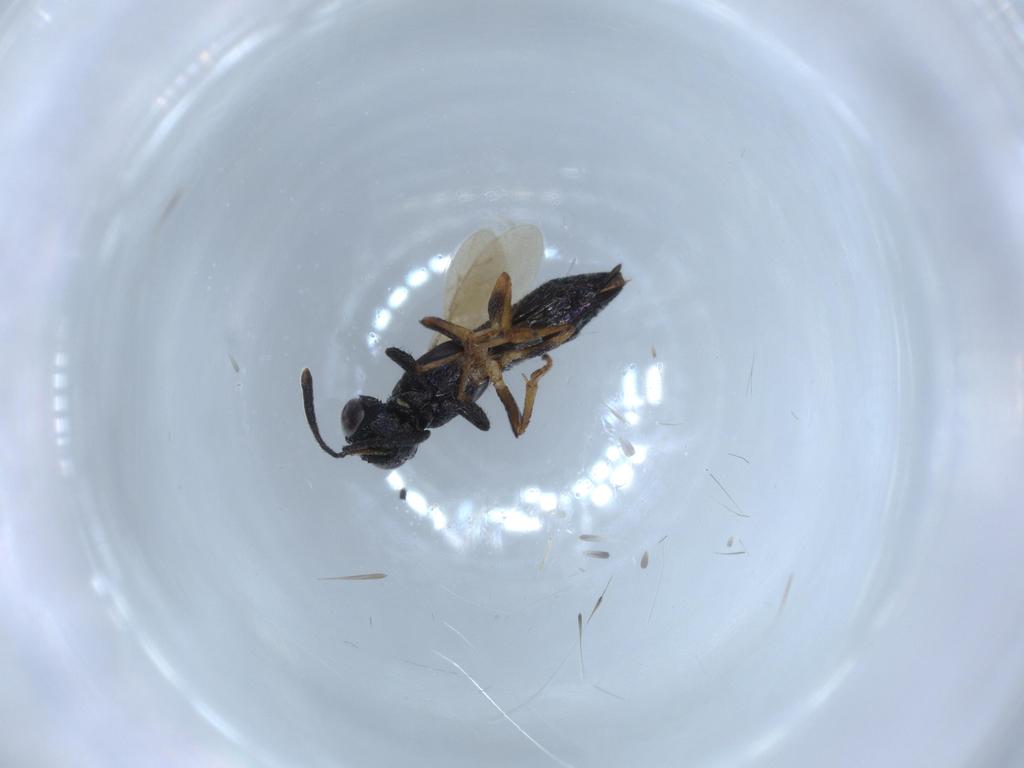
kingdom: Animalia
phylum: Arthropoda
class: Insecta
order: Hymenoptera
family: Eupelmidae
